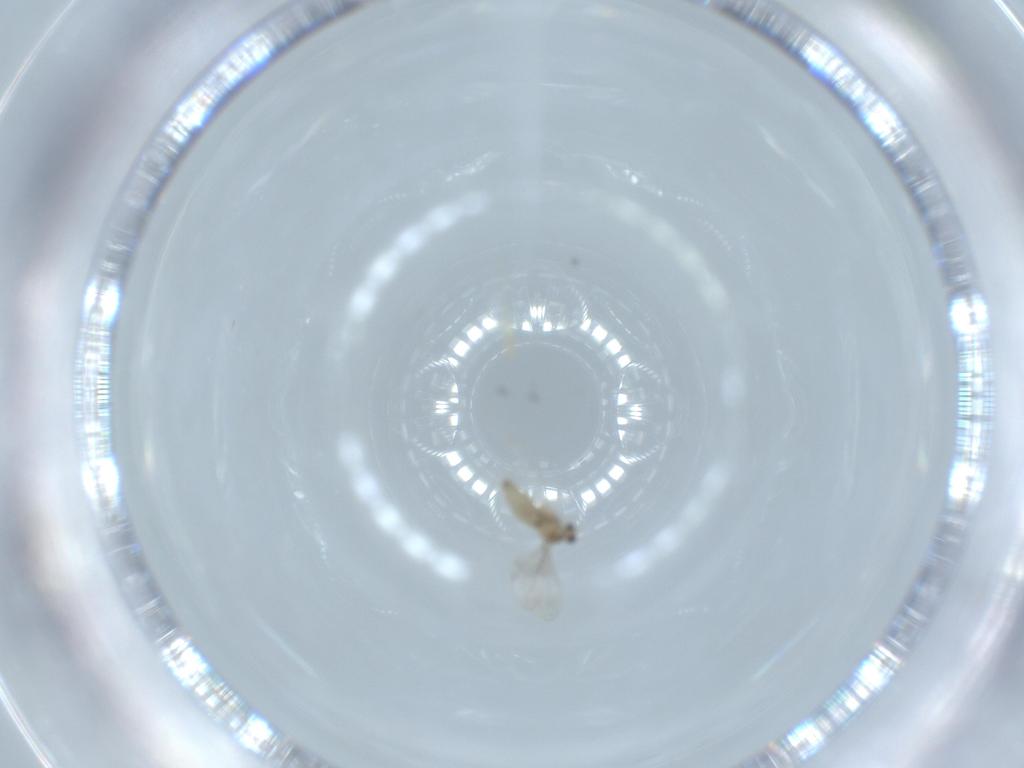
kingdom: Animalia
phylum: Arthropoda
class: Insecta
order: Diptera
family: Cecidomyiidae
